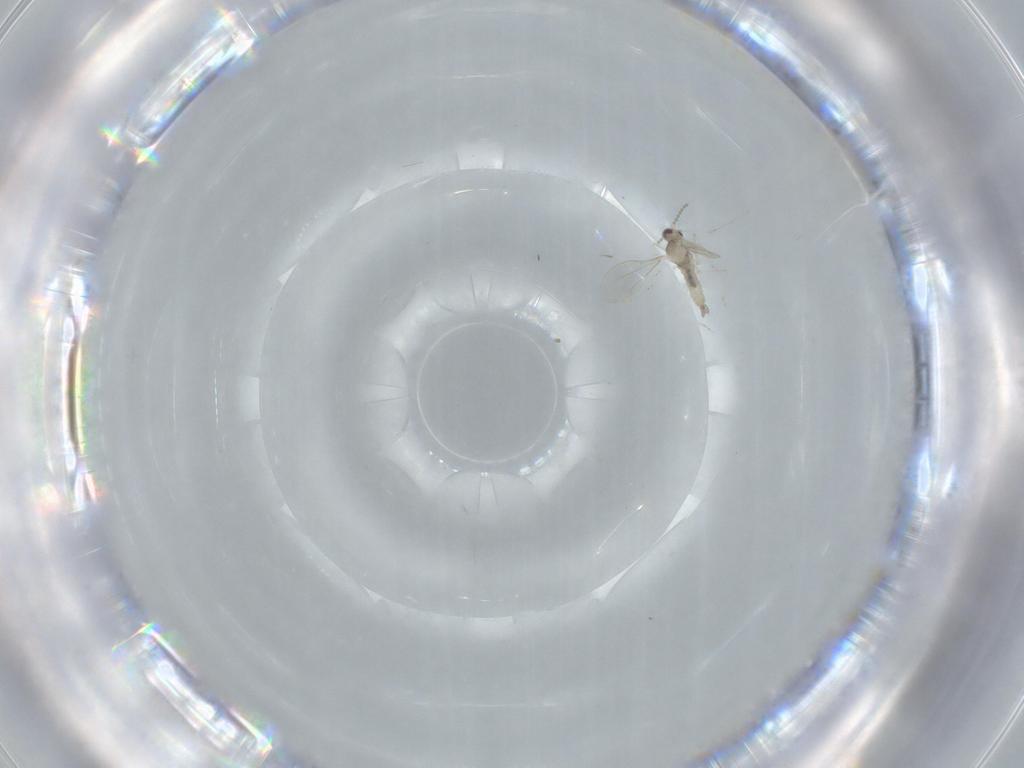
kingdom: Animalia
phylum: Arthropoda
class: Insecta
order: Diptera
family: Cecidomyiidae
